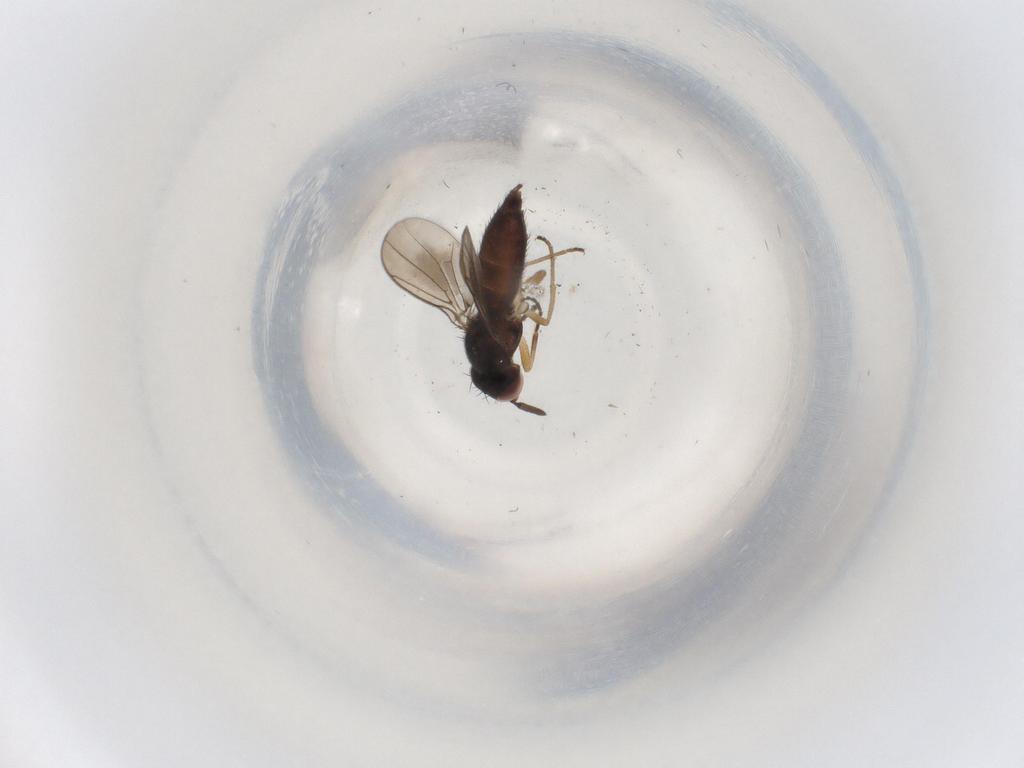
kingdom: Animalia
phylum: Arthropoda
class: Insecta
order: Diptera
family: Chloropidae
